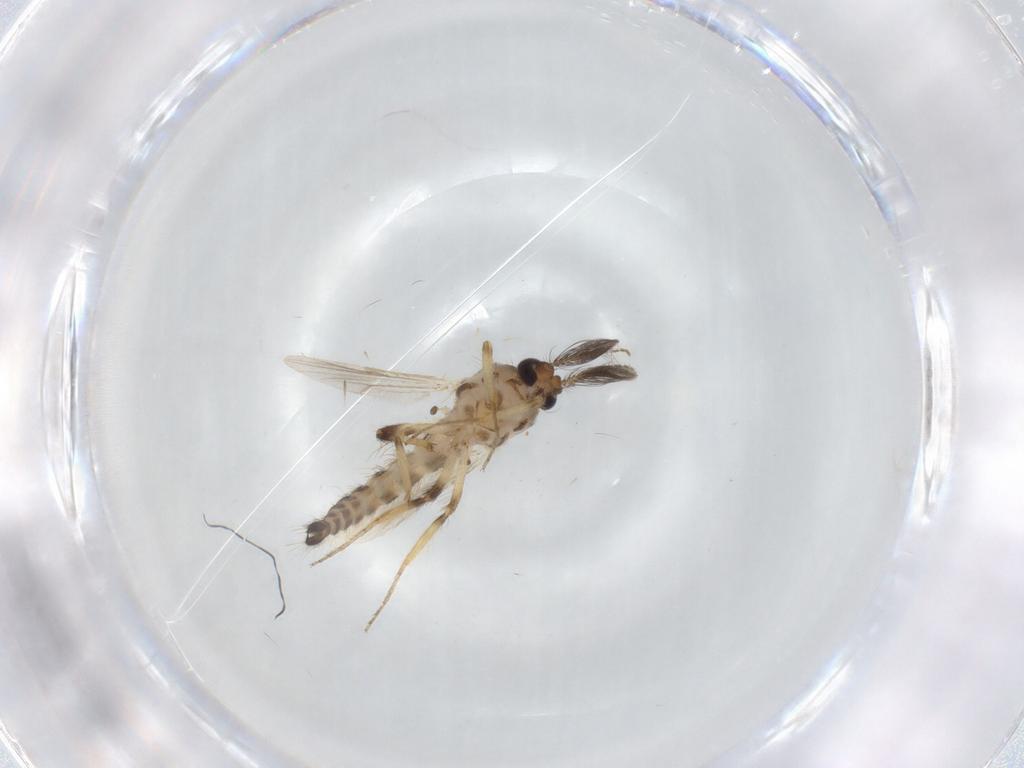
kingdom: Animalia
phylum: Arthropoda
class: Insecta
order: Diptera
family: Ceratopogonidae
